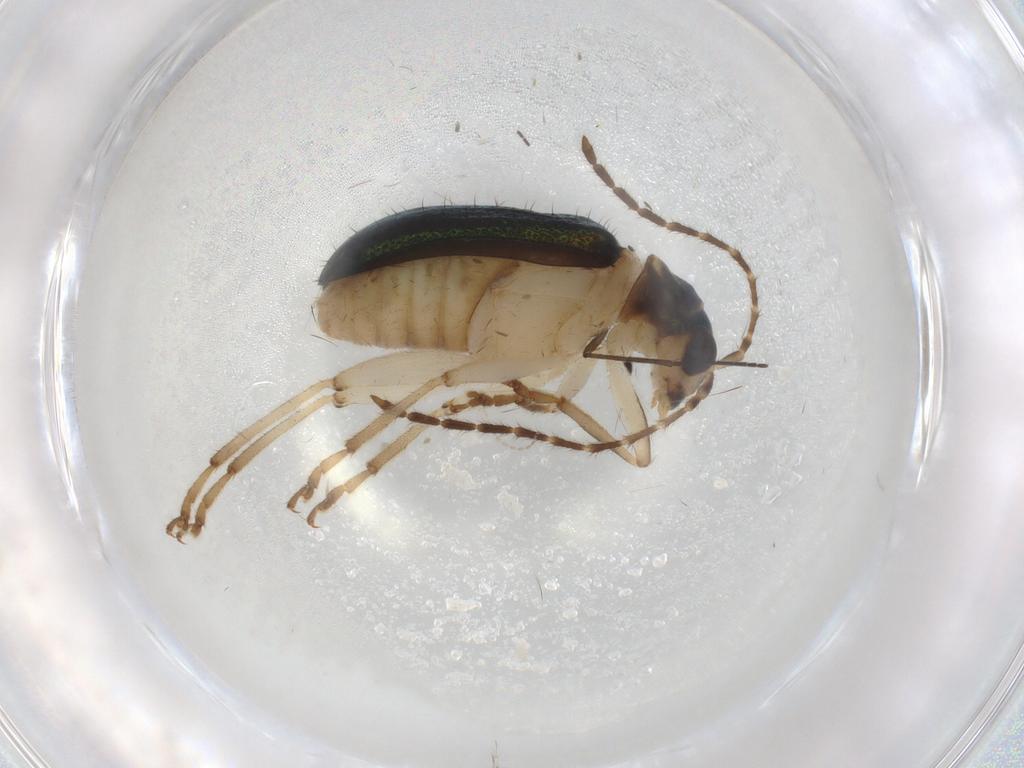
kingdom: Animalia
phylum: Arthropoda
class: Insecta
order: Coleoptera
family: Chrysomelidae
